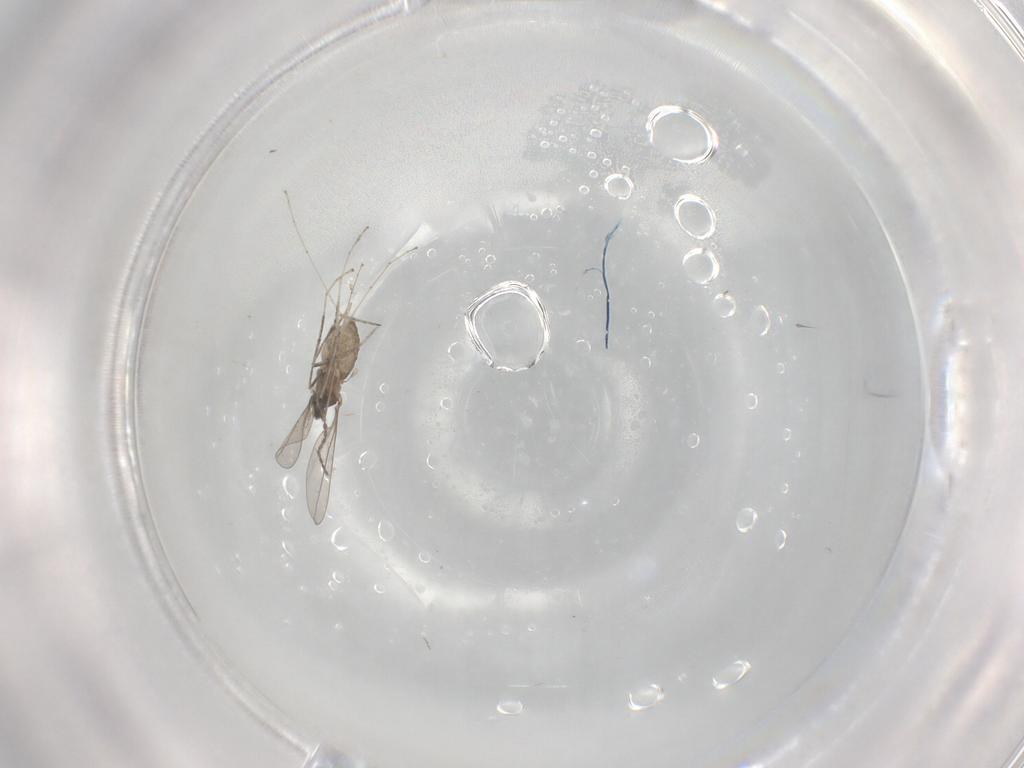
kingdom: Animalia
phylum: Arthropoda
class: Insecta
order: Diptera
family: Cecidomyiidae
